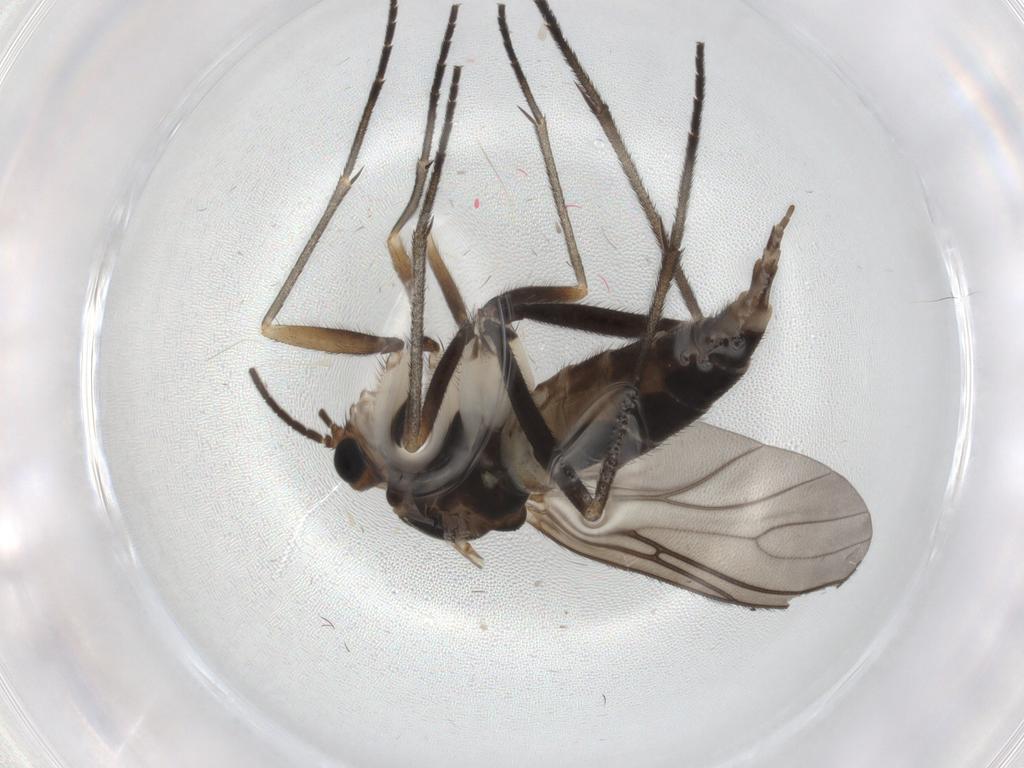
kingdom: Animalia
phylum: Arthropoda
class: Insecta
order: Diptera
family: Sciaridae
